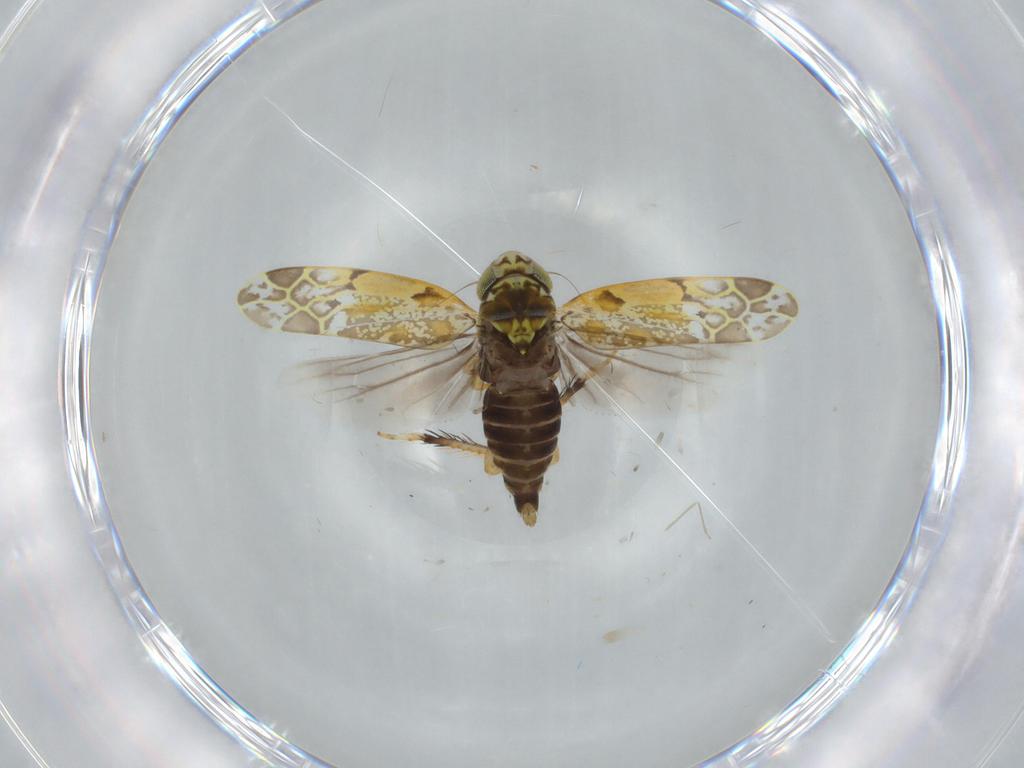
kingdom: Animalia
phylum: Arthropoda
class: Insecta
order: Hemiptera
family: Cicadellidae
